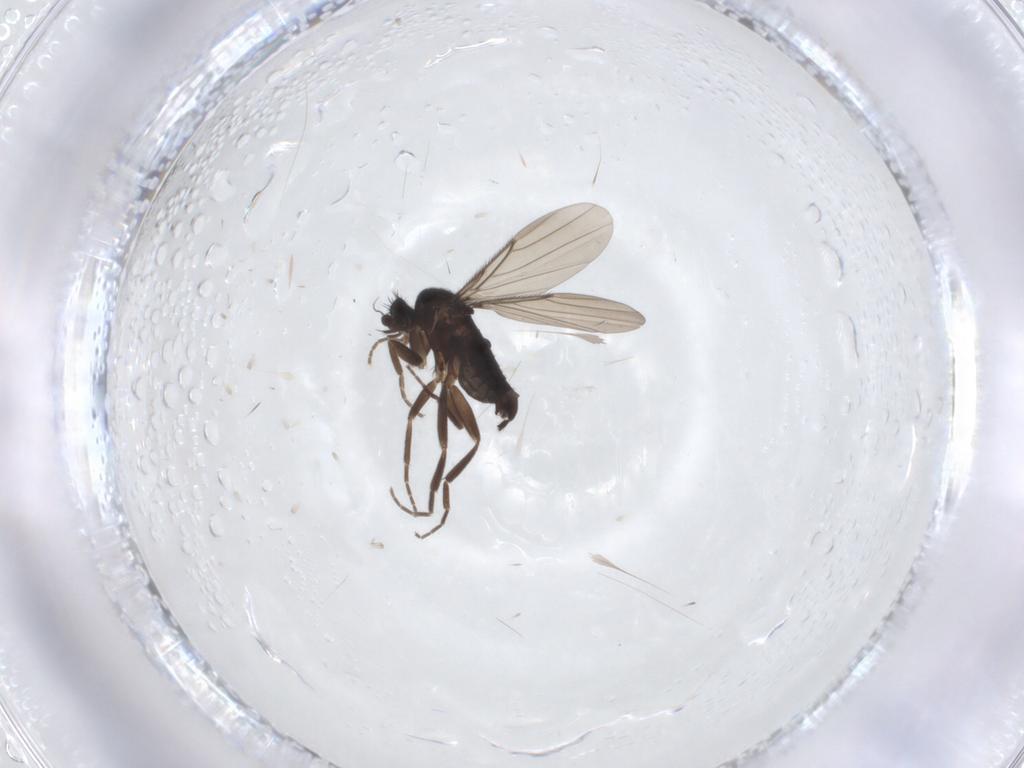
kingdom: Animalia
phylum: Arthropoda
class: Insecta
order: Diptera
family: Phoridae
